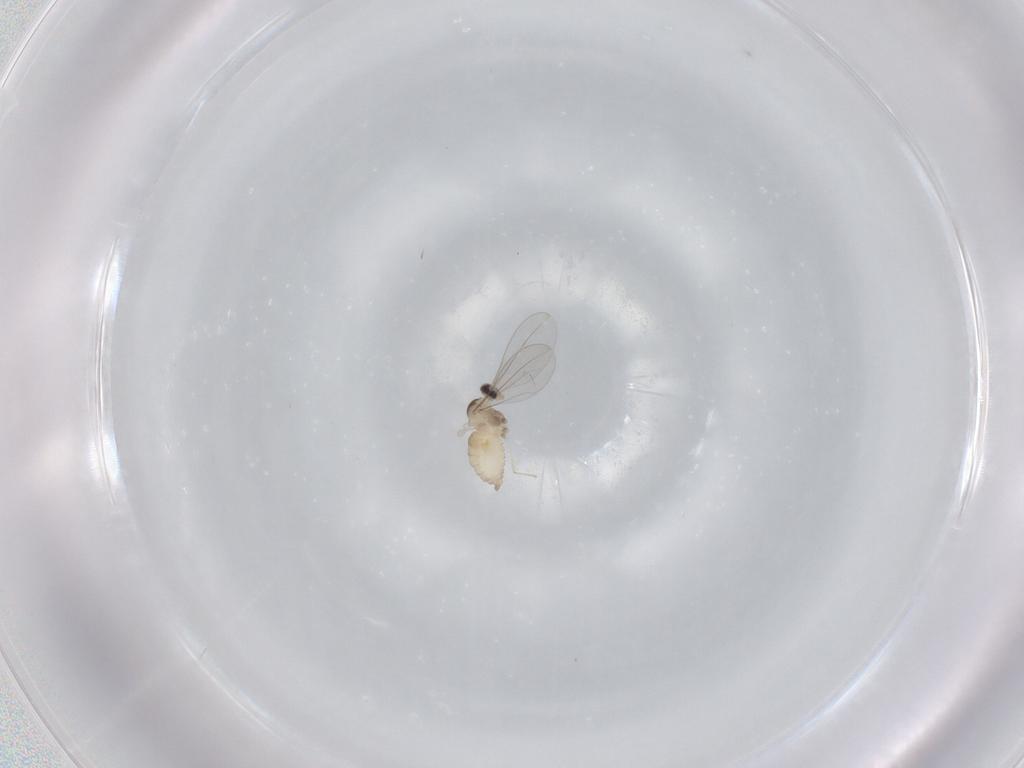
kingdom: Animalia
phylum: Arthropoda
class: Insecta
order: Diptera
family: Cecidomyiidae
